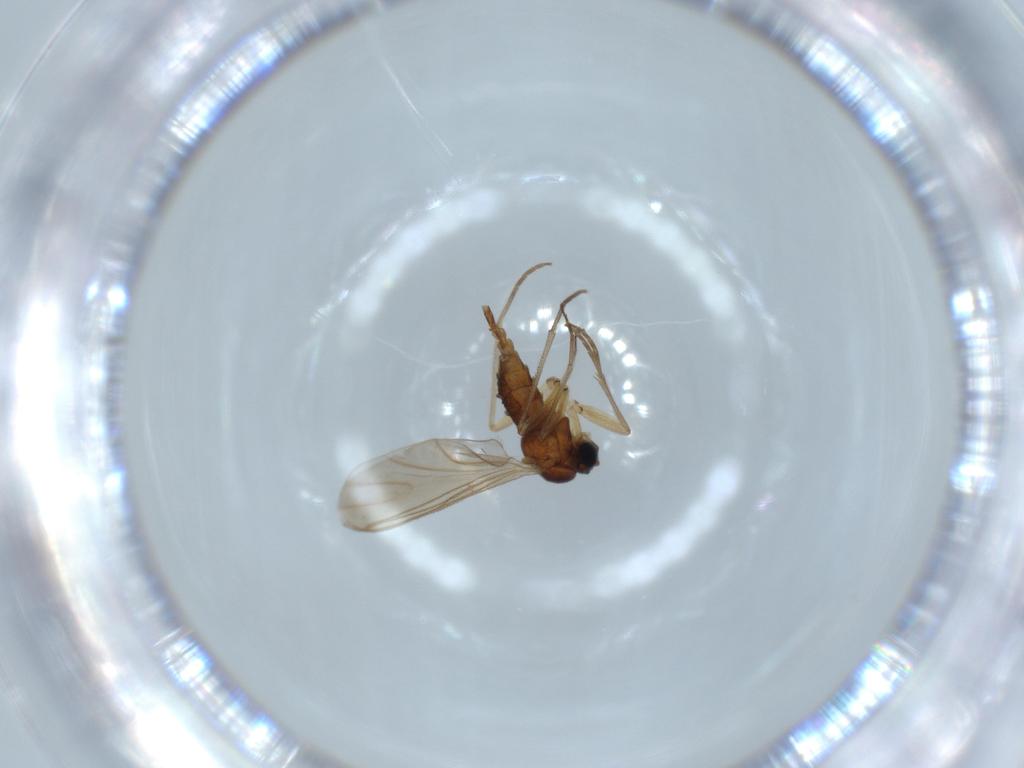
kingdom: Animalia
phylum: Arthropoda
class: Insecta
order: Diptera
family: Sciaridae
